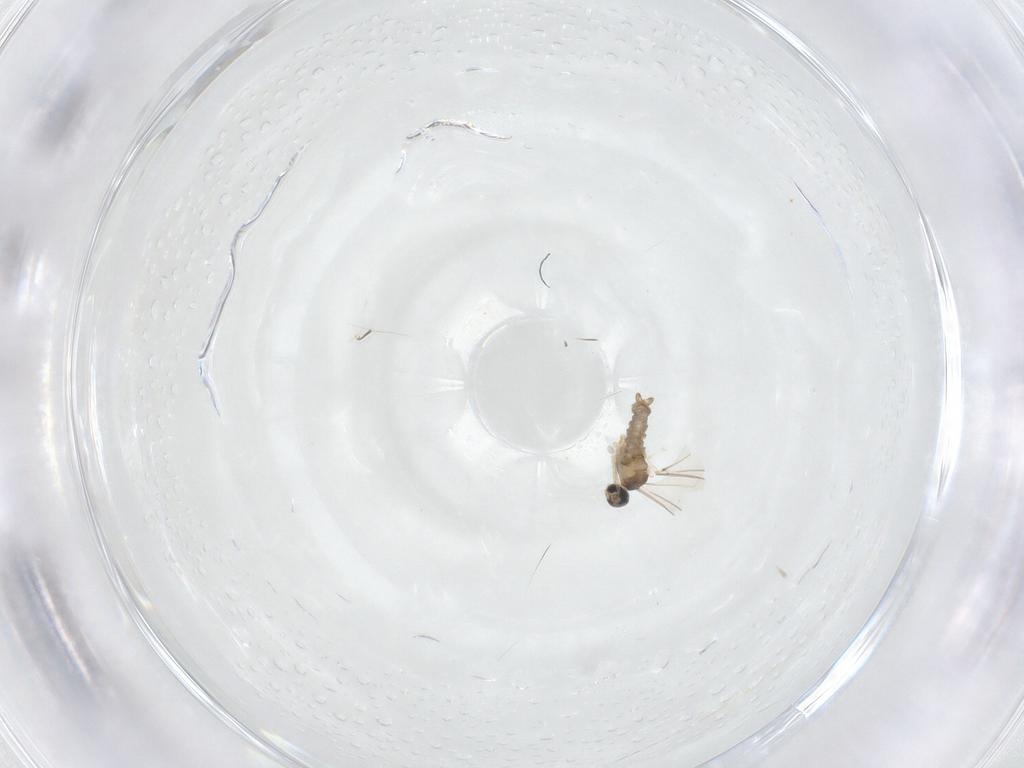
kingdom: Animalia
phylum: Arthropoda
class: Insecta
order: Diptera
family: Cecidomyiidae
